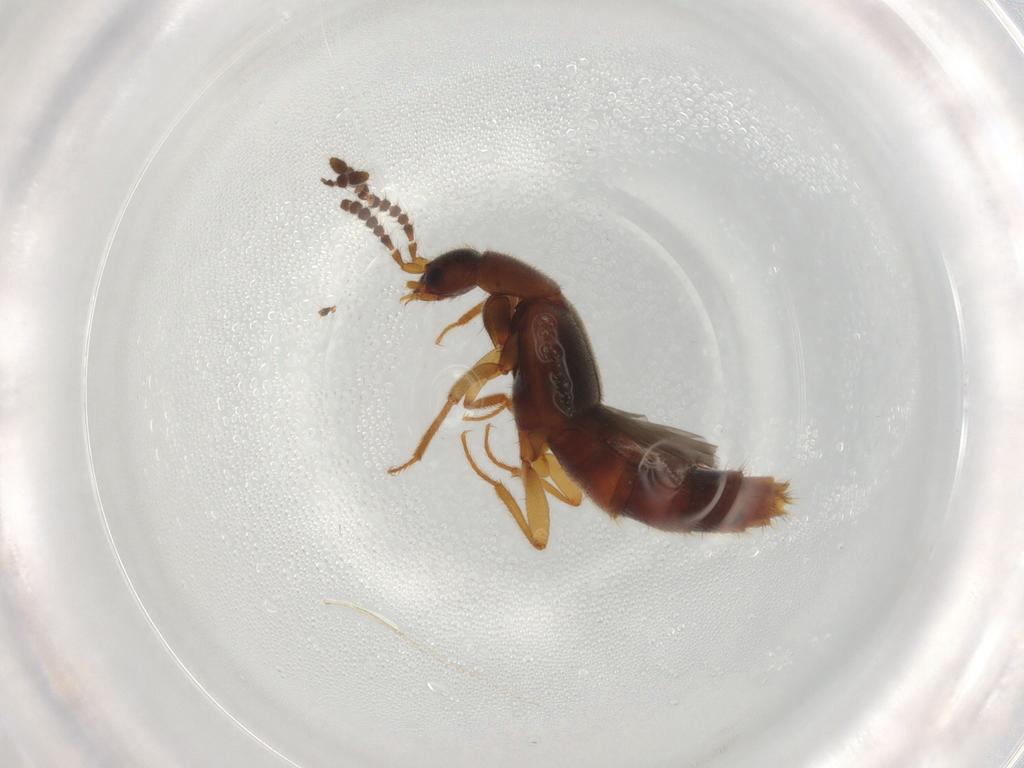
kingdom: Animalia
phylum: Arthropoda
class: Insecta
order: Coleoptera
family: Staphylinidae
